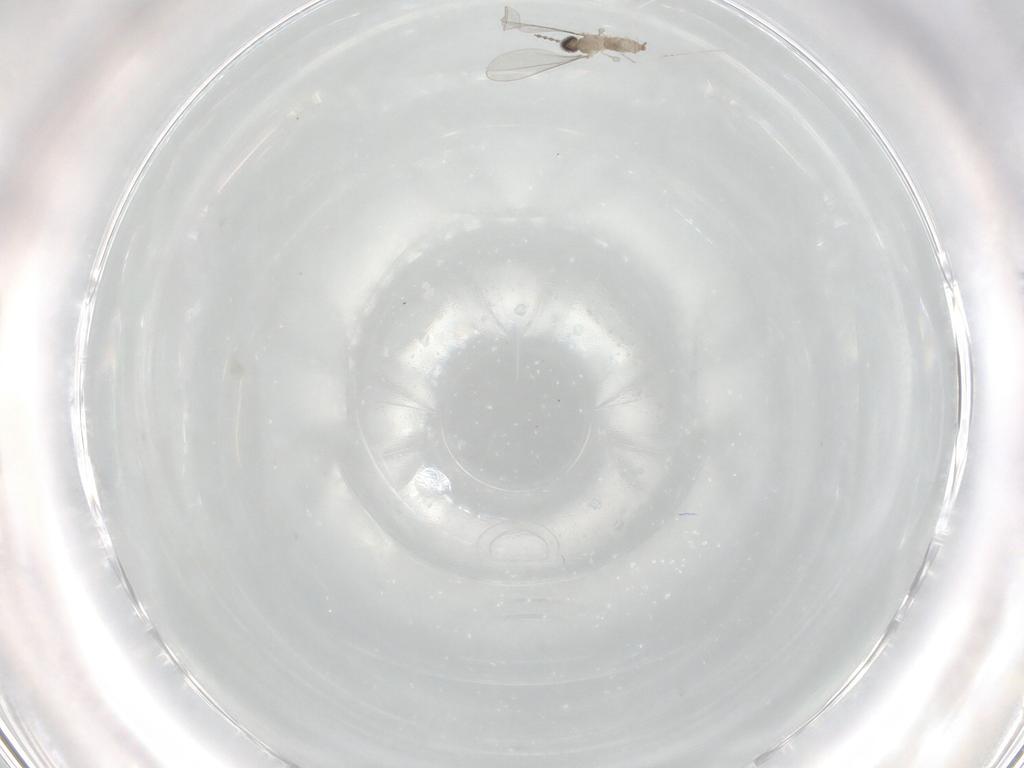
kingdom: Animalia
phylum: Arthropoda
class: Insecta
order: Diptera
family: Cecidomyiidae
